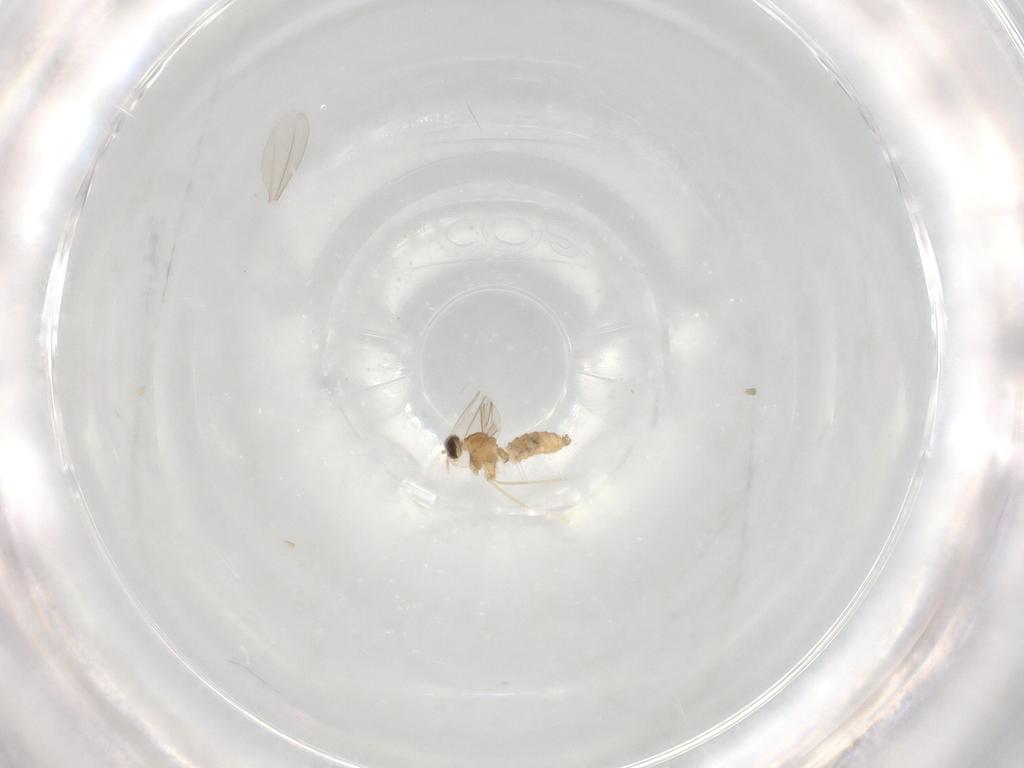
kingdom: Animalia
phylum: Arthropoda
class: Insecta
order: Diptera
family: Cecidomyiidae
